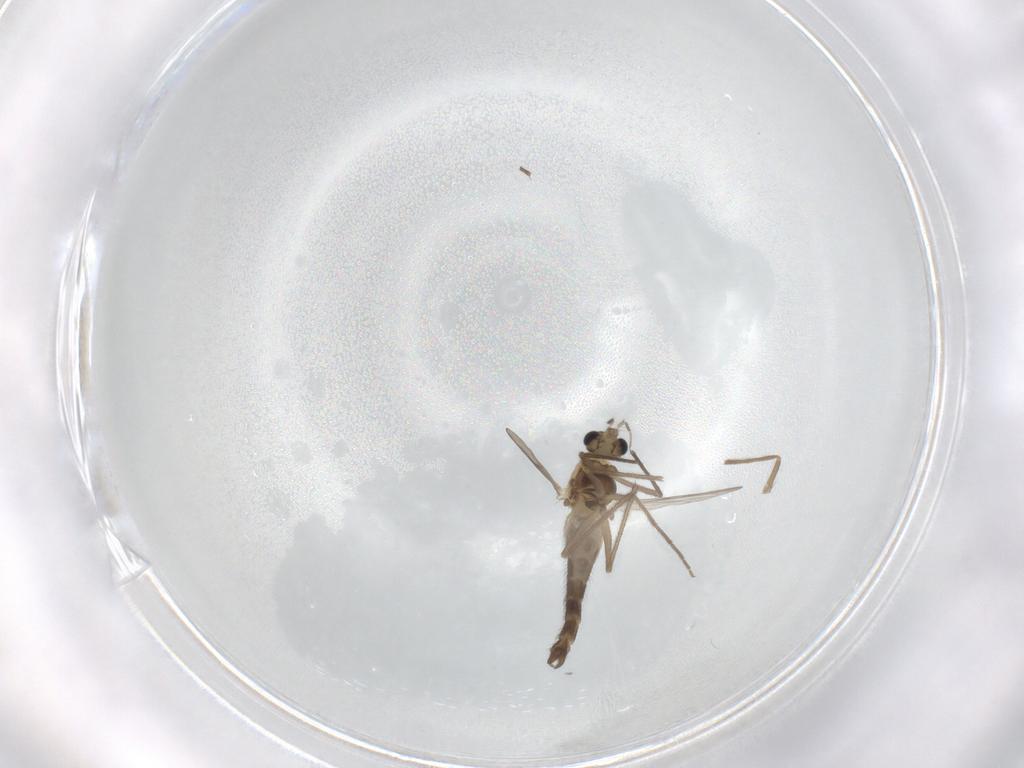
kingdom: Animalia
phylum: Arthropoda
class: Insecta
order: Diptera
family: Chironomidae
